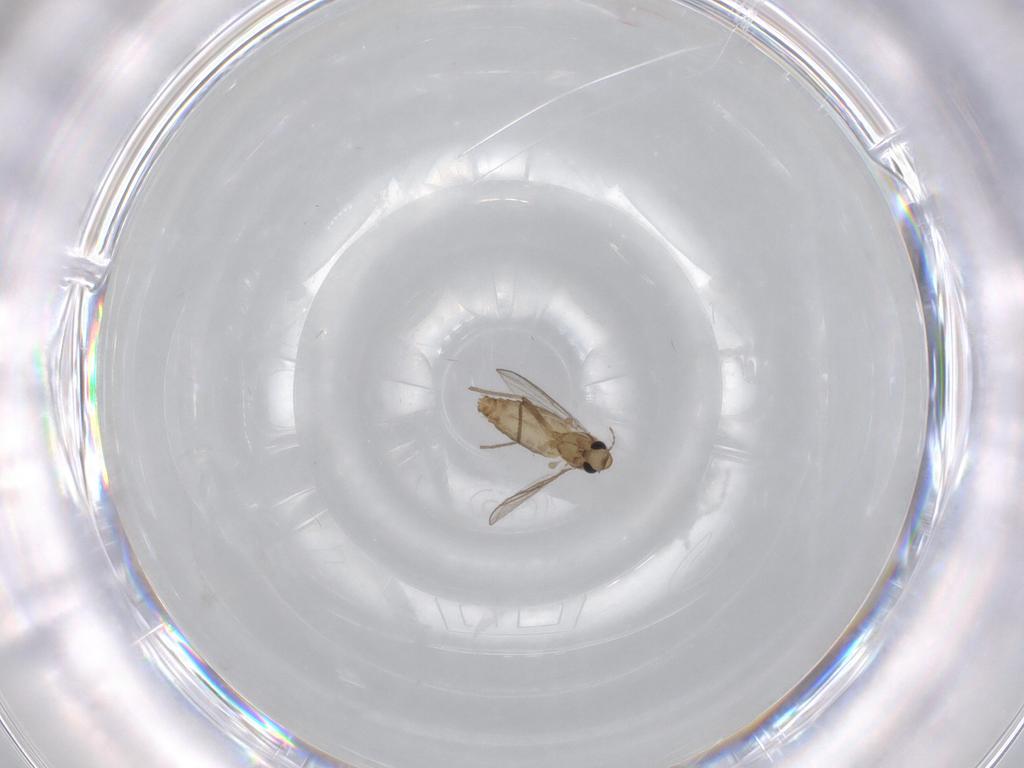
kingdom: Animalia
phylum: Arthropoda
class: Insecta
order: Diptera
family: Chironomidae
